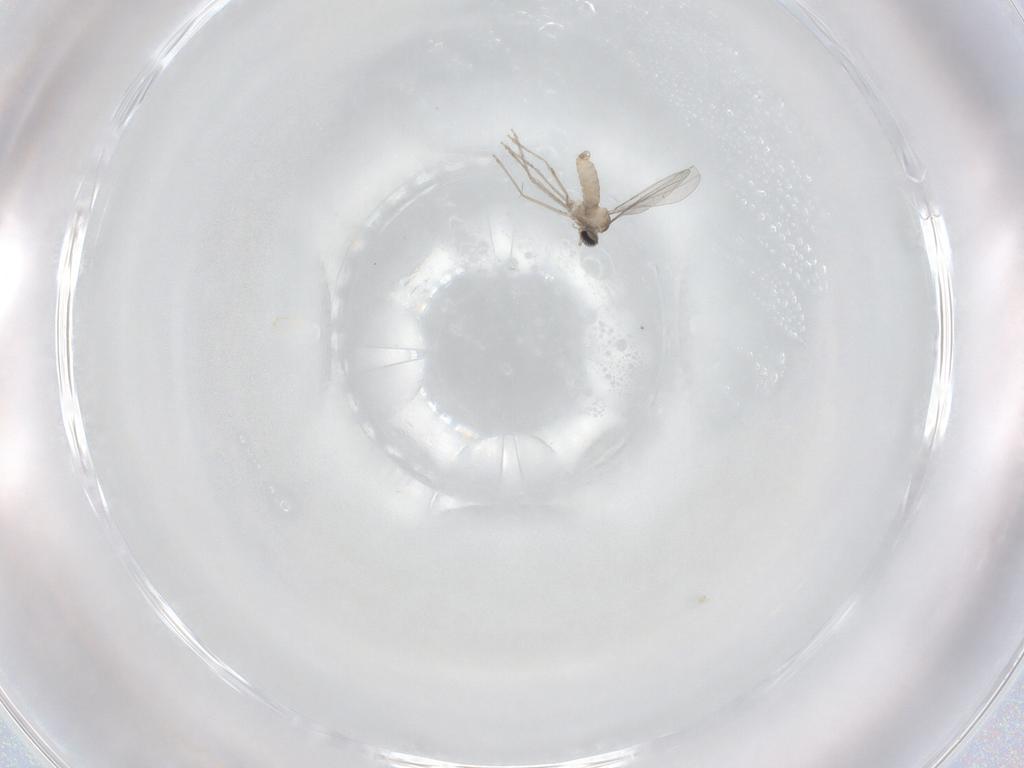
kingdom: Animalia
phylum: Arthropoda
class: Insecta
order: Diptera
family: Cecidomyiidae
